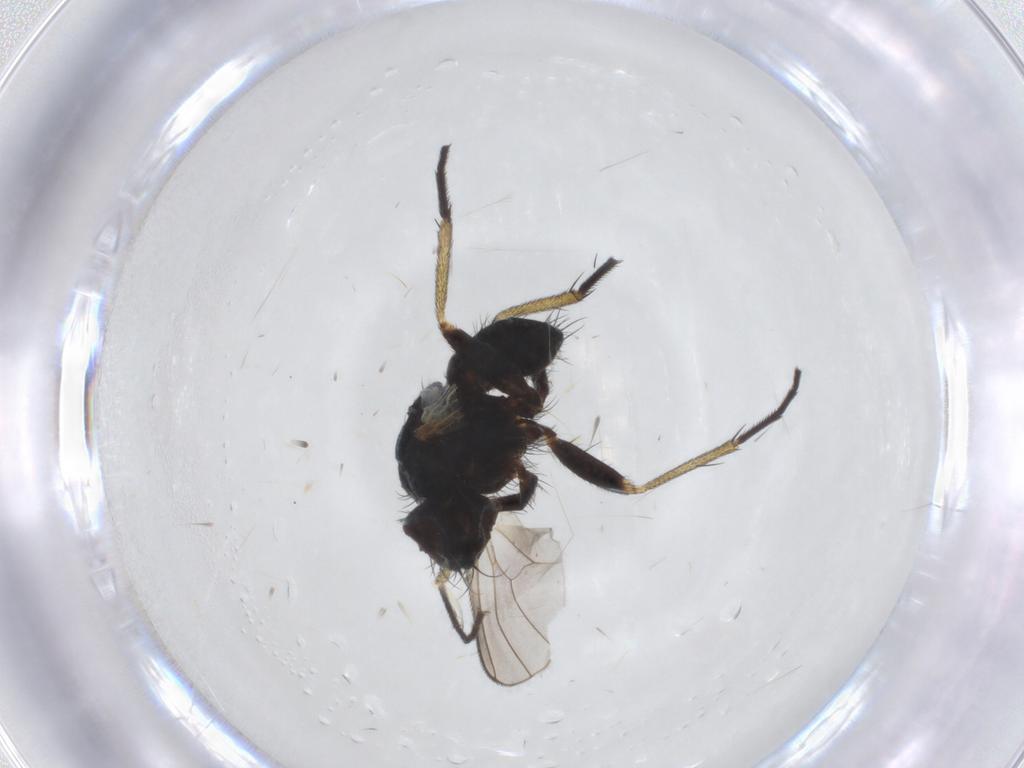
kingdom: Animalia
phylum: Arthropoda
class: Insecta
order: Diptera
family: Muscidae
